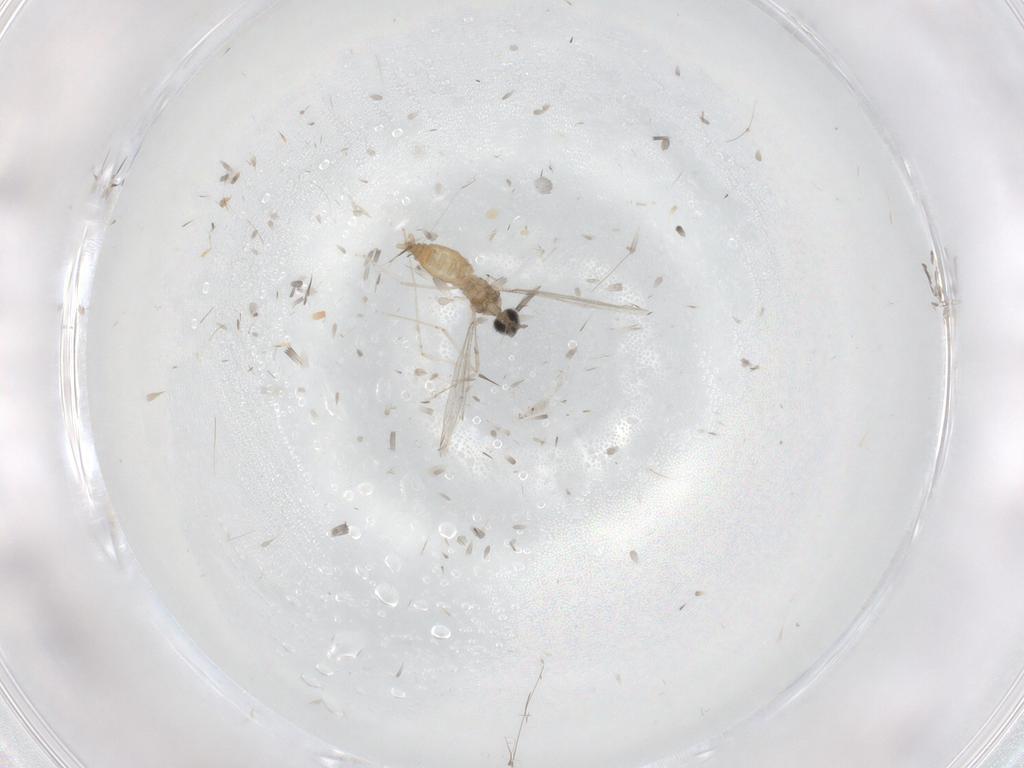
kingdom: Animalia
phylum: Arthropoda
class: Insecta
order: Diptera
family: Cecidomyiidae
